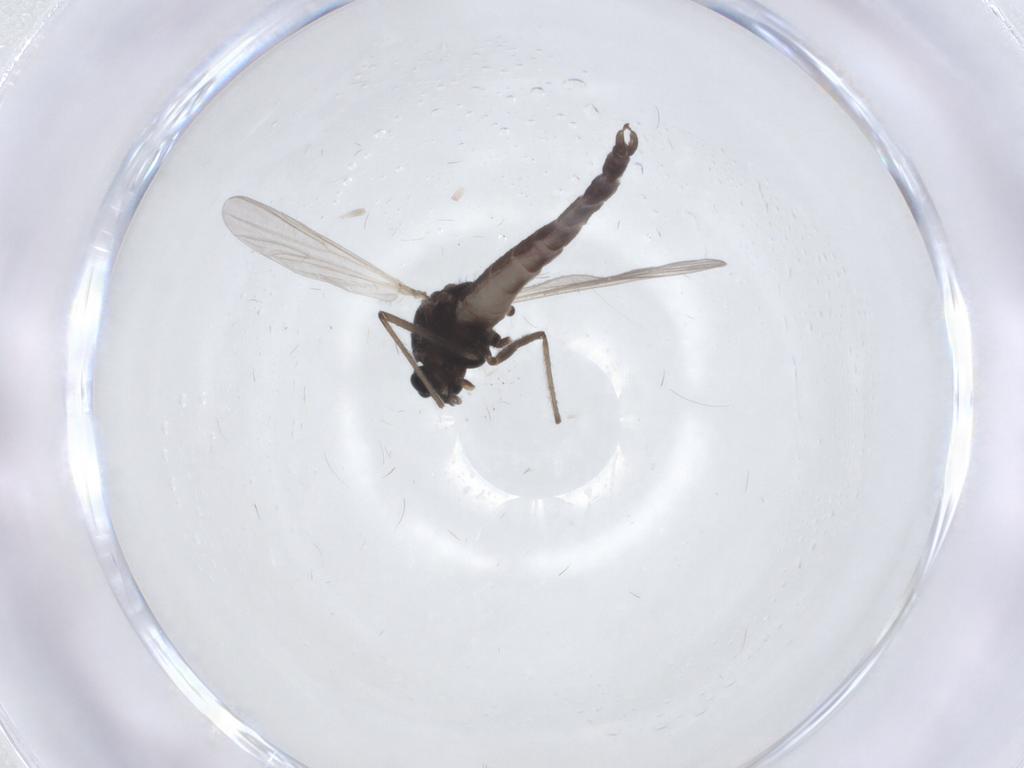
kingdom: Animalia
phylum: Arthropoda
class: Insecta
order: Diptera
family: Chironomidae
